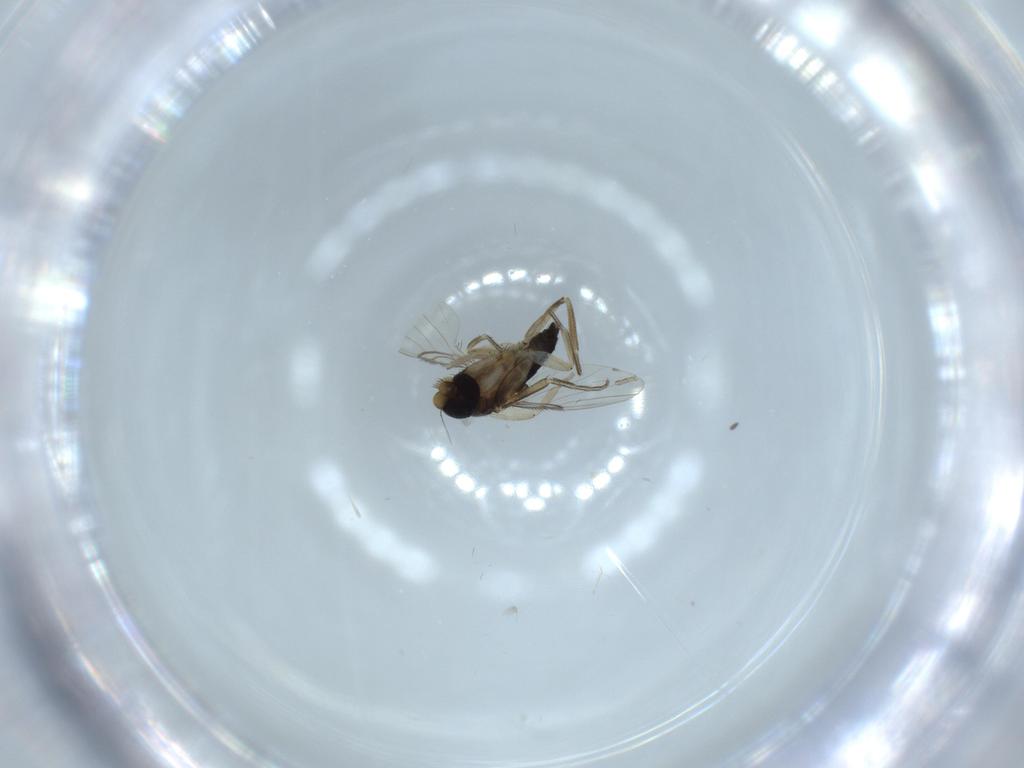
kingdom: Animalia
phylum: Arthropoda
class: Insecta
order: Diptera
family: Phoridae
